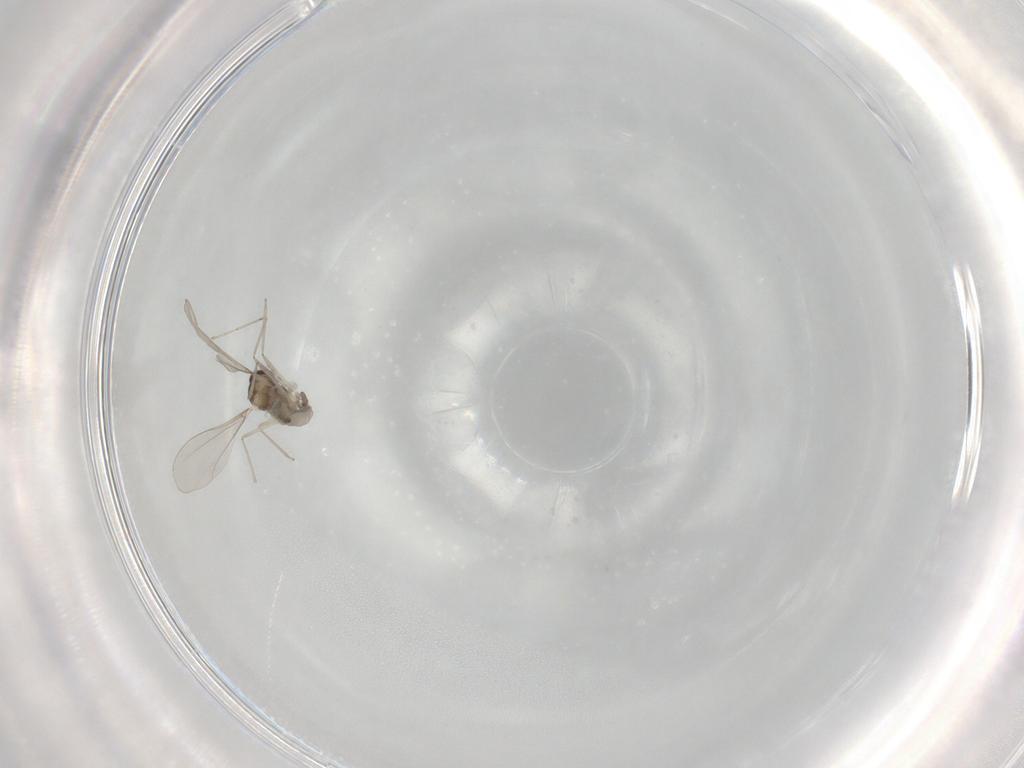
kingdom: Animalia
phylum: Arthropoda
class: Insecta
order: Diptera
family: Cecidomyiidae
